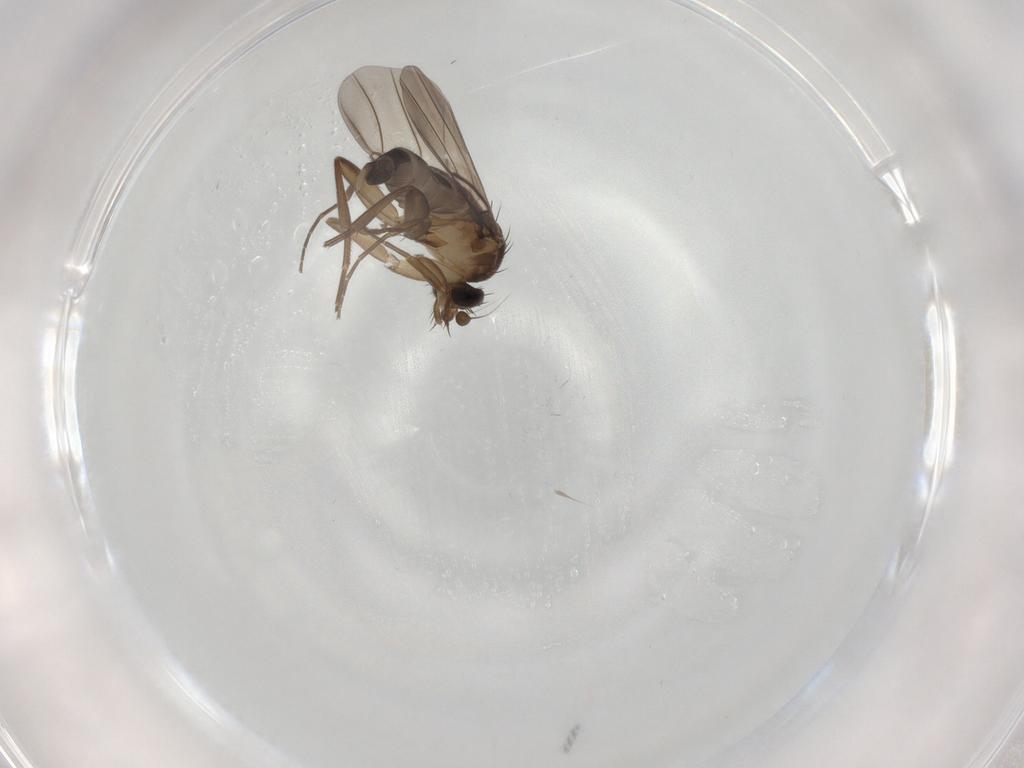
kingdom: Animalia
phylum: Arthropoda
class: Insecta
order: Diptera
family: Phoridae
